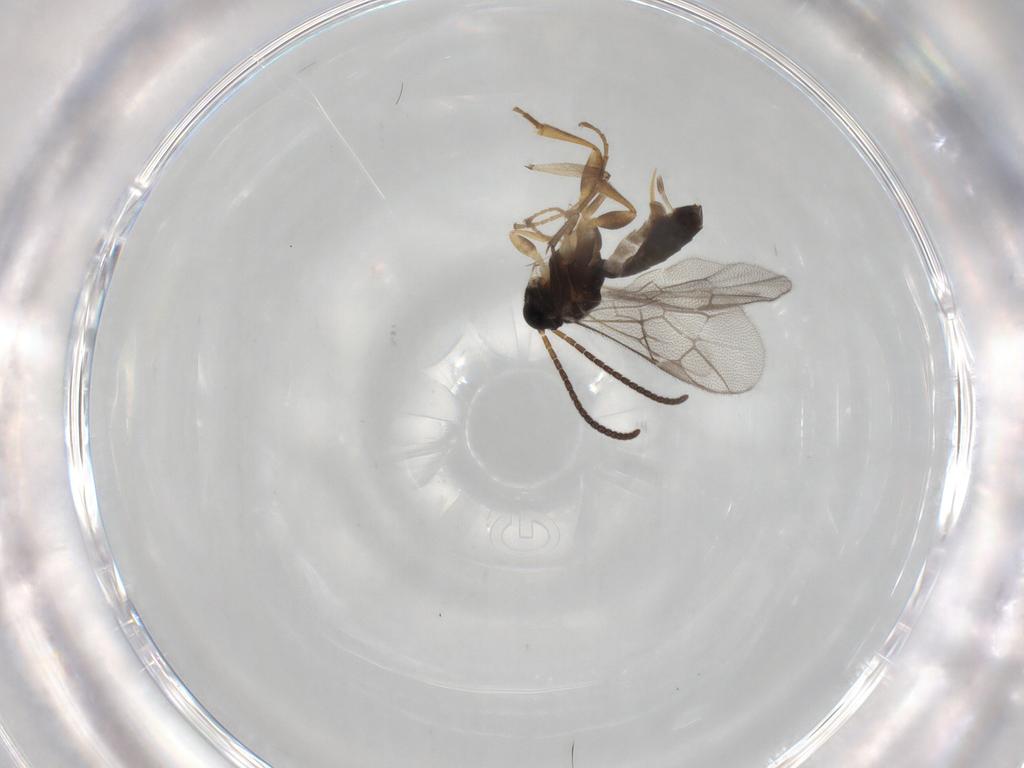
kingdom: Animalia
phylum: Arthropoda
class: Insecta
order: Hymenoptera
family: Ichneumonidae
